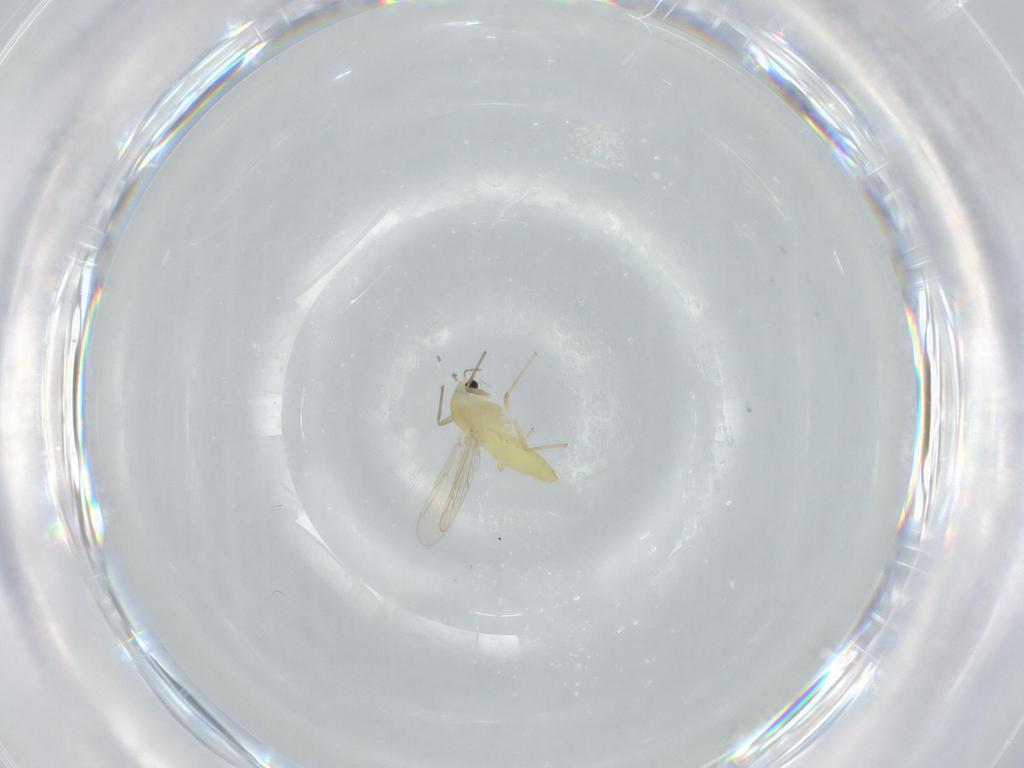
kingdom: Animalia
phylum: Arthropoda
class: Insecta
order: Diptera
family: Chironomidae
